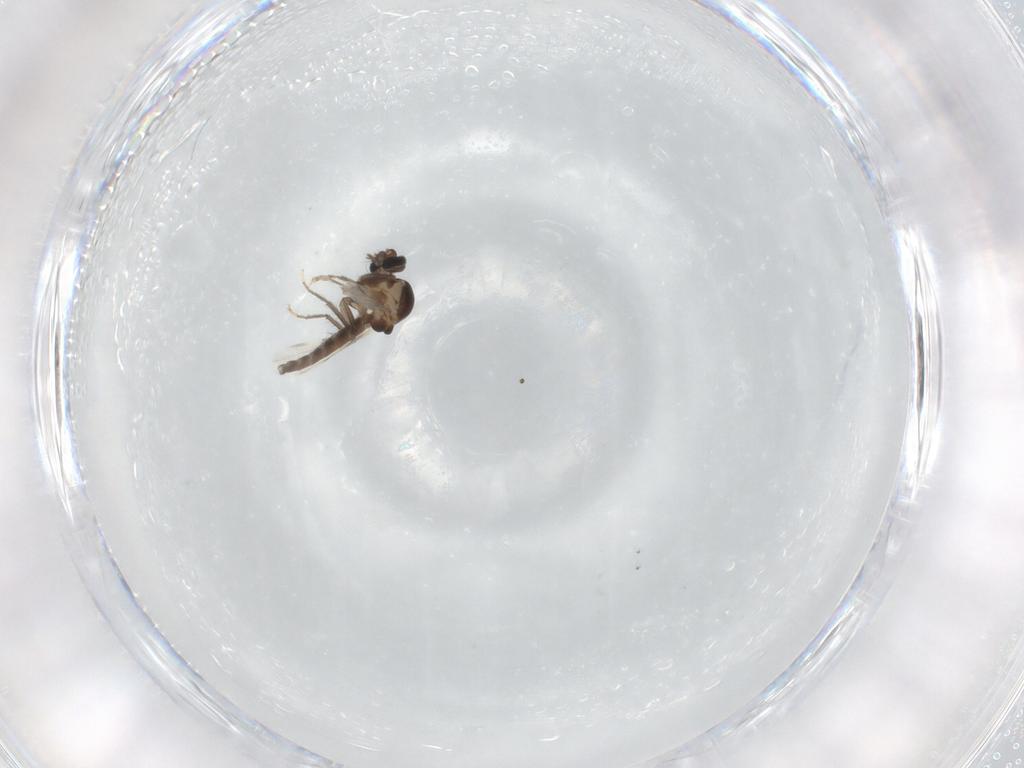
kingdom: Animalia
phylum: Arthropoda
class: Insecta
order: Diptera
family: Ceratopogonidae
